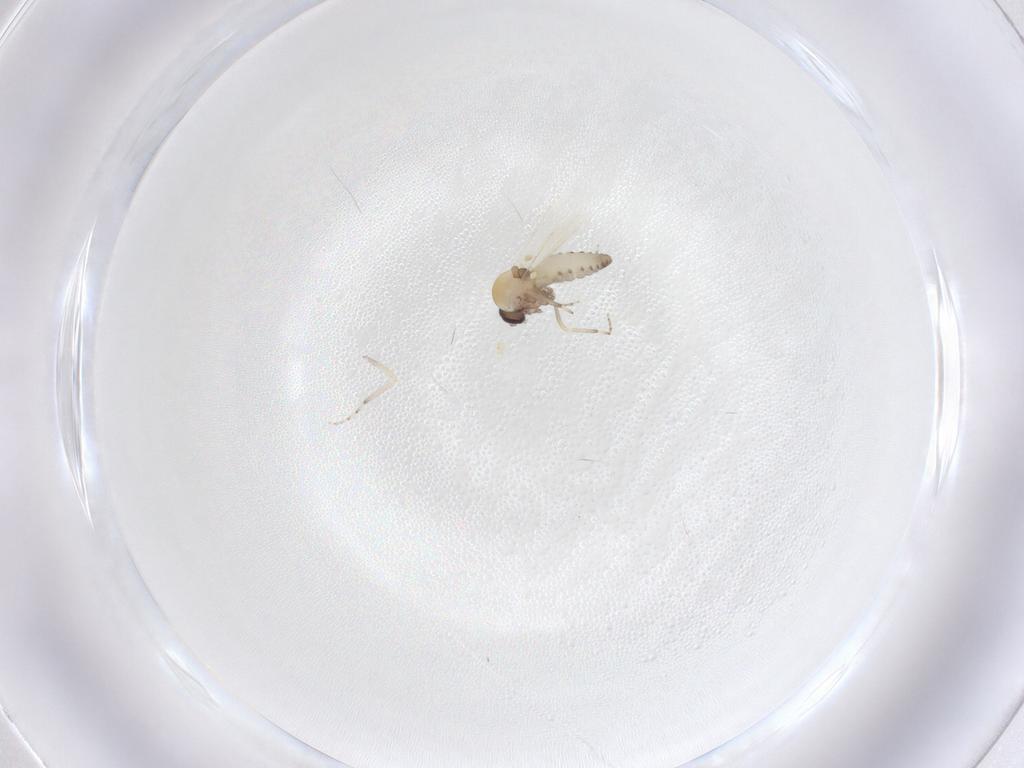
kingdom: Animalia
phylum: Arthropoda
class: Insecta
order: Diptera
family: Ceratopogonidae
